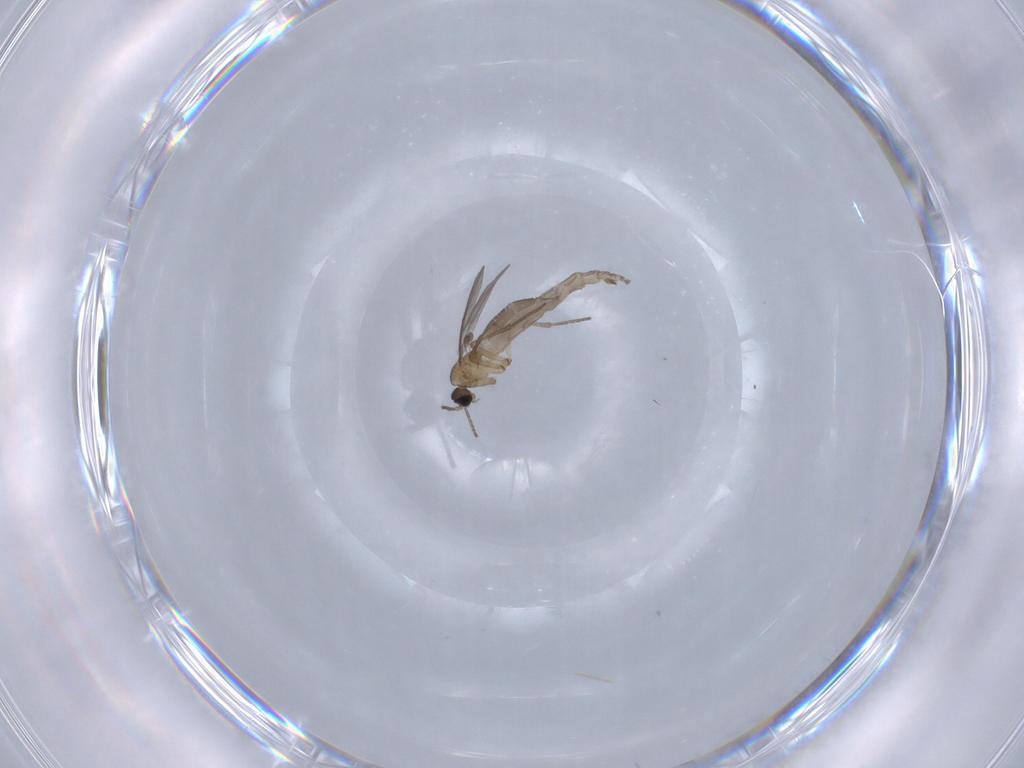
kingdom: Animalia
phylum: Arthropoda
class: Insecta
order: Diptera
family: Sciaridae
